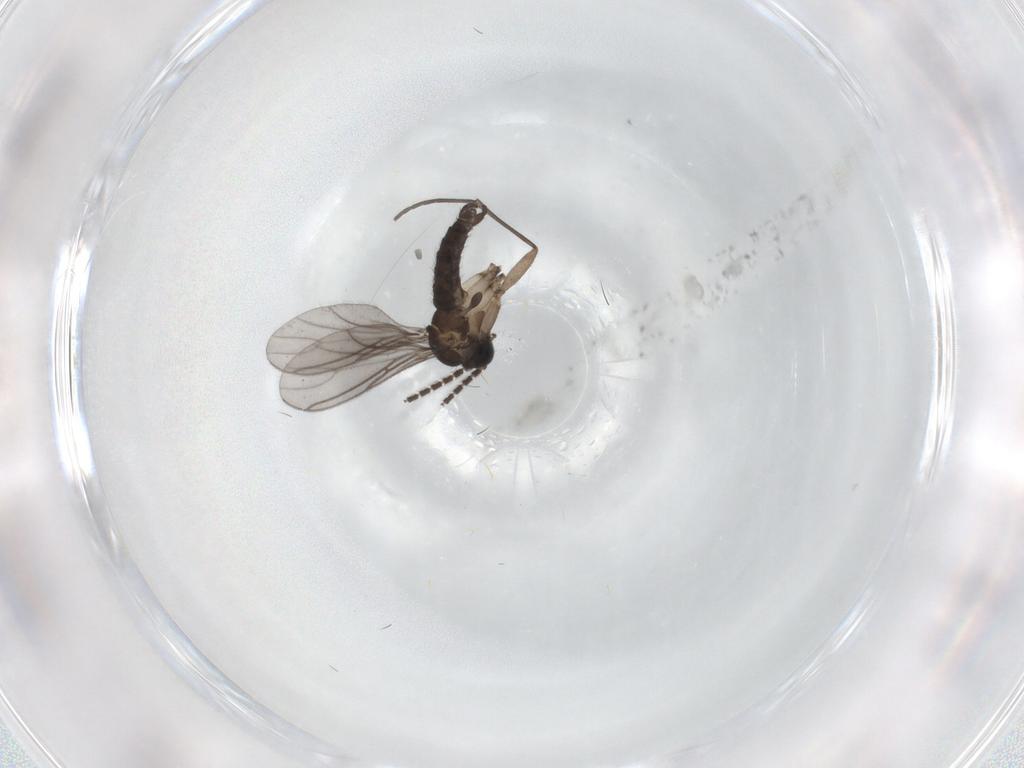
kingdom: Animalia
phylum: Arthropoda
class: Insecta
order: Diptera
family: Sciaridae
